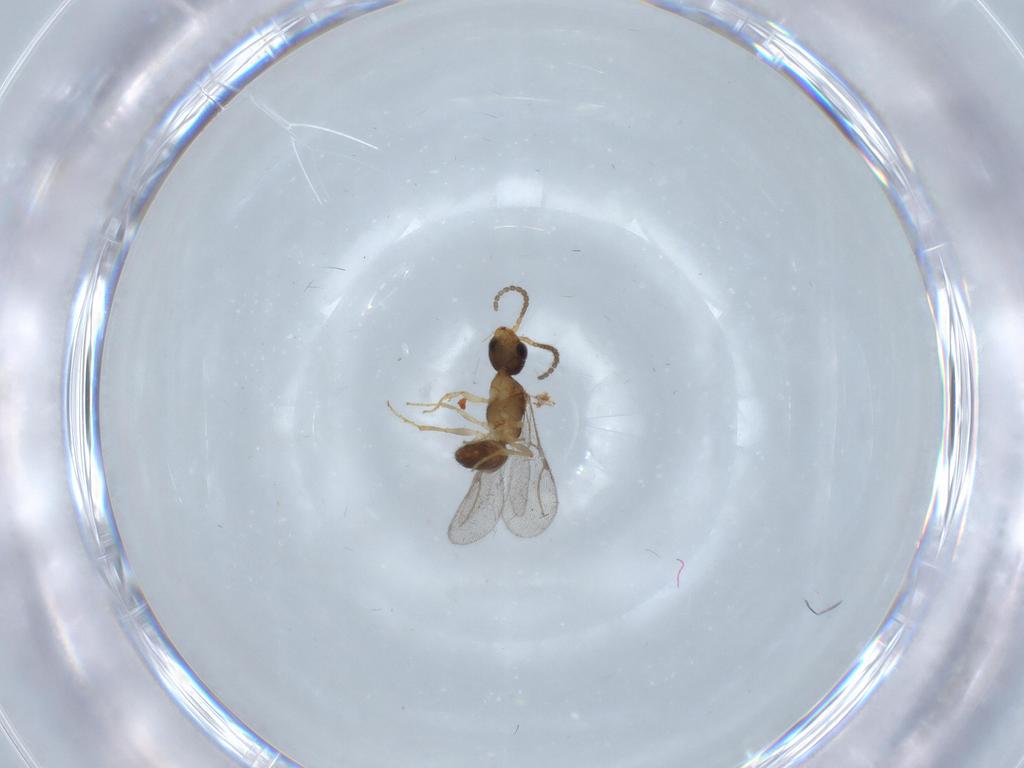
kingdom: Animalia
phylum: Arthropoda
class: Insecta
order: Hymenoptera
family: Bethylidae
